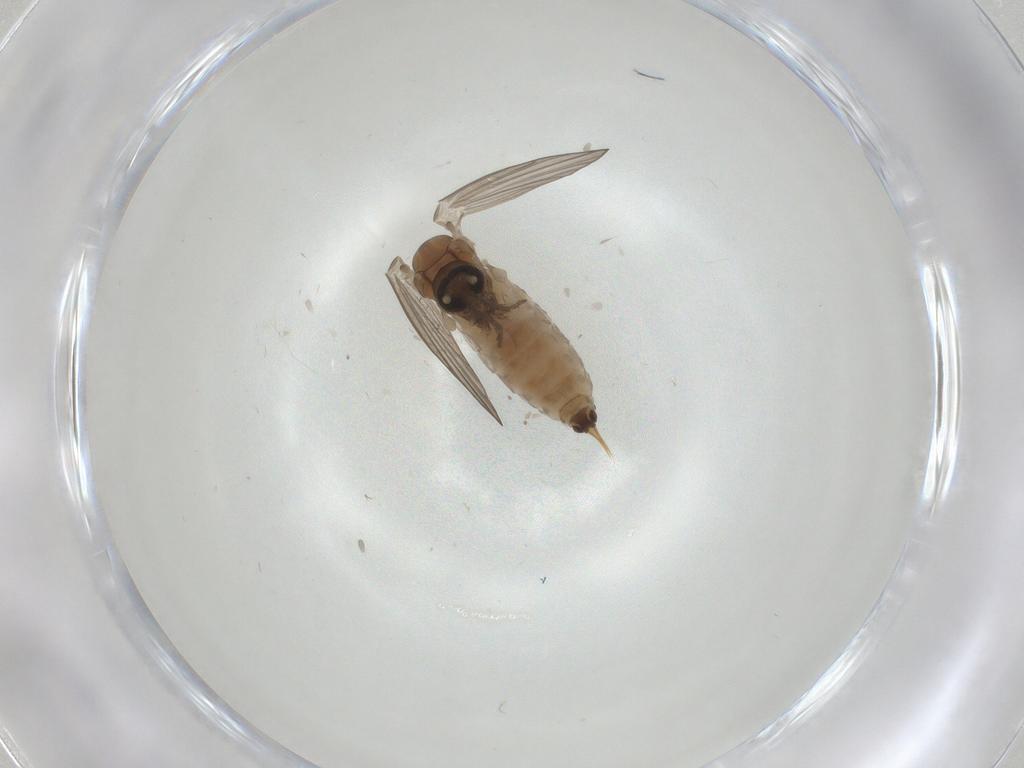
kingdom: Animalia
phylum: Arthropoda
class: Insecta
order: Diptera
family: Psychodidae
